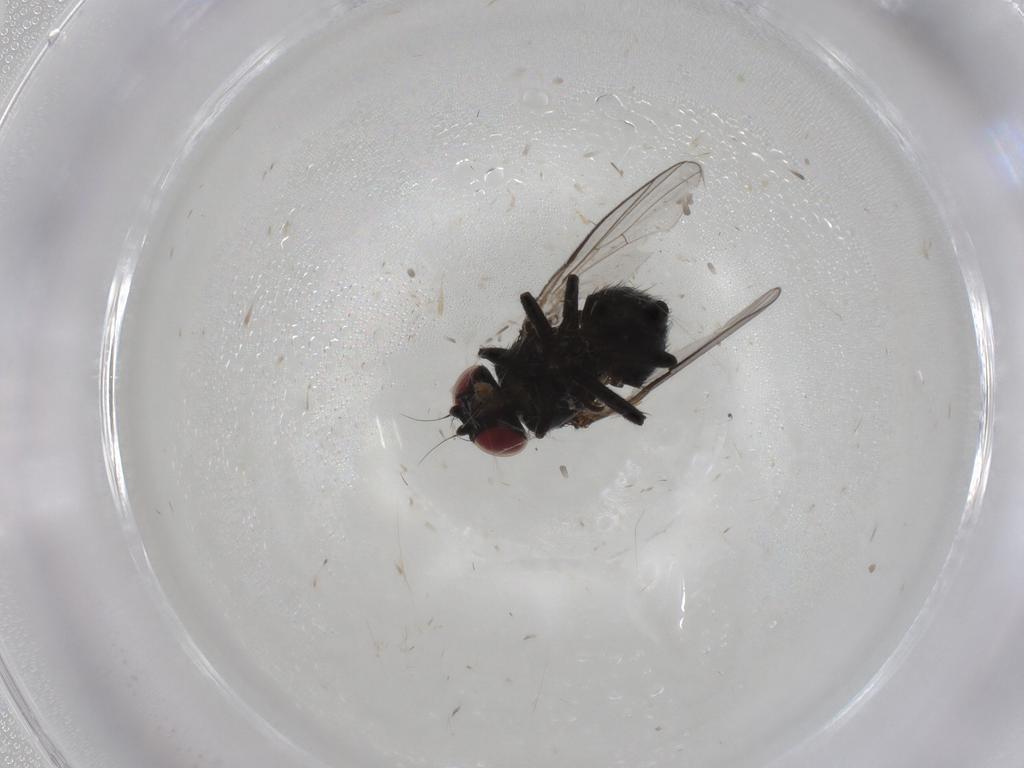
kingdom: Animalia
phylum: Arthropoda
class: Insecta
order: Diptera
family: Agromyzidae
